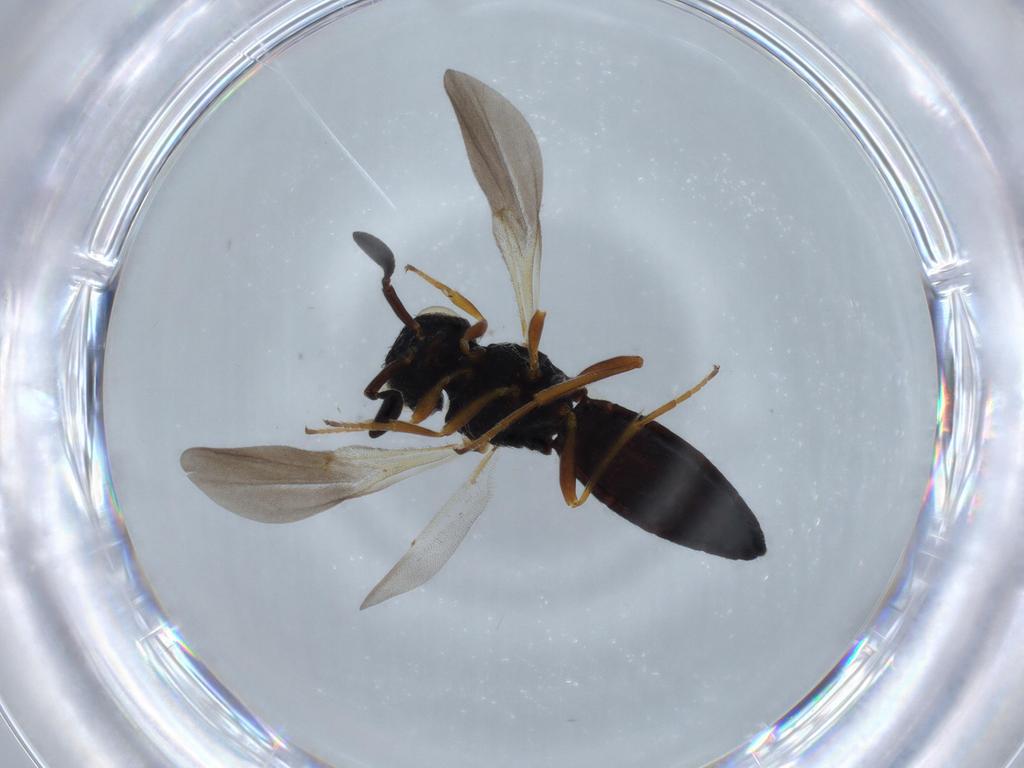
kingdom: Animalia
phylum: Arthropoda
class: Insecta
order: Hymenoptera
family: Scelionidae
